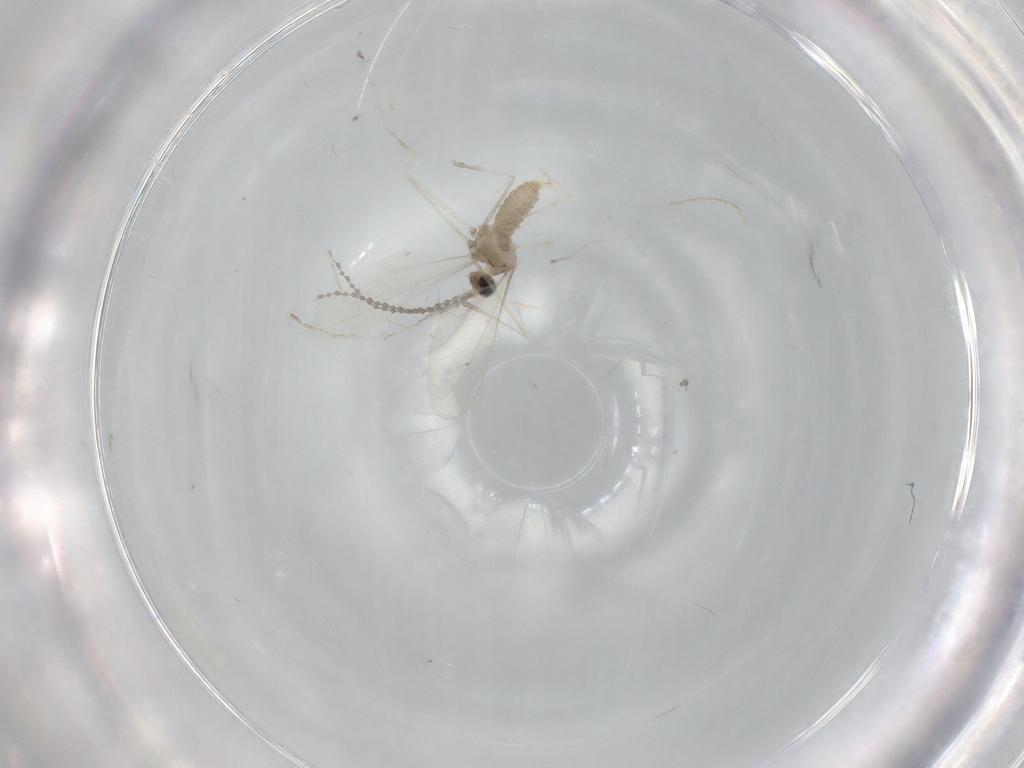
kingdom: Animalia
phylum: Arthropoda
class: Insecta
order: Diptera
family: Cecidomyiidae
